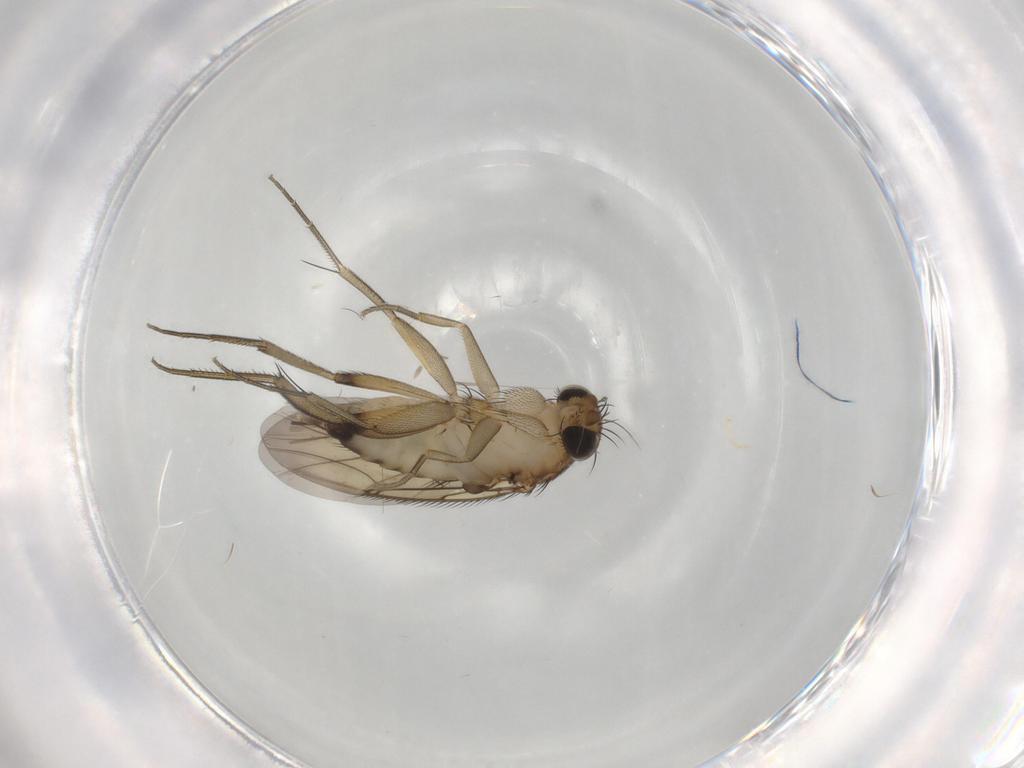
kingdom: Animalia
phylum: Arthropoda
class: Insecta
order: Diptera
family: Phoridae
